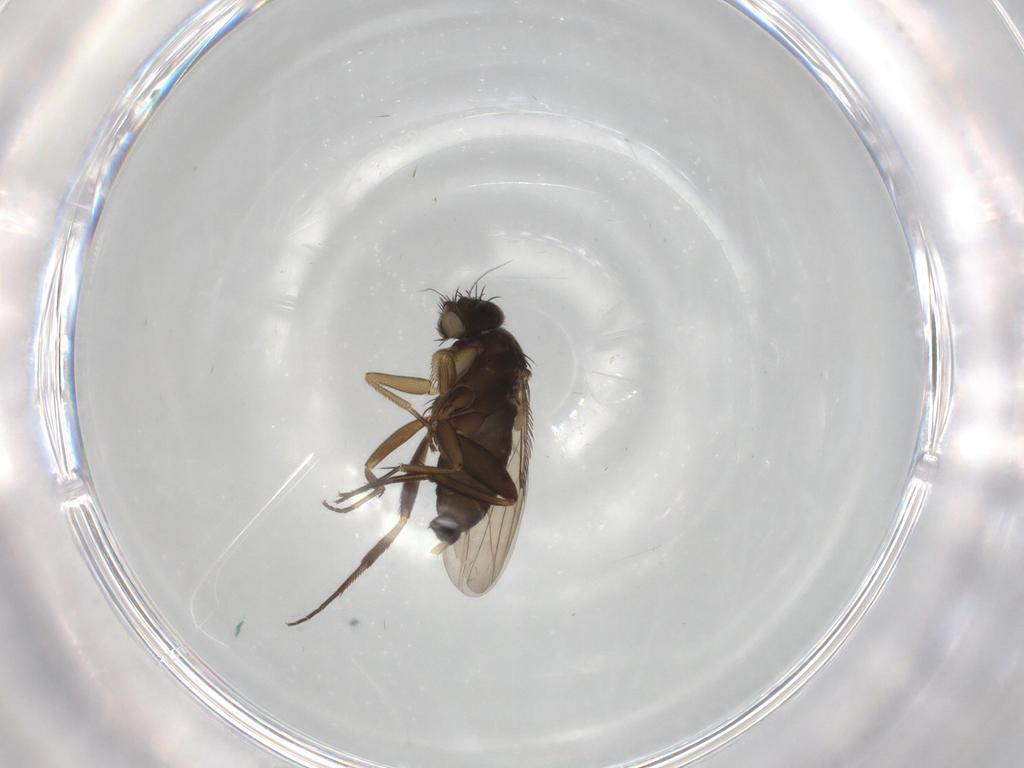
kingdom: Animalia
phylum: Arthropoda
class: Insecta
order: Diptera
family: Phoridae
